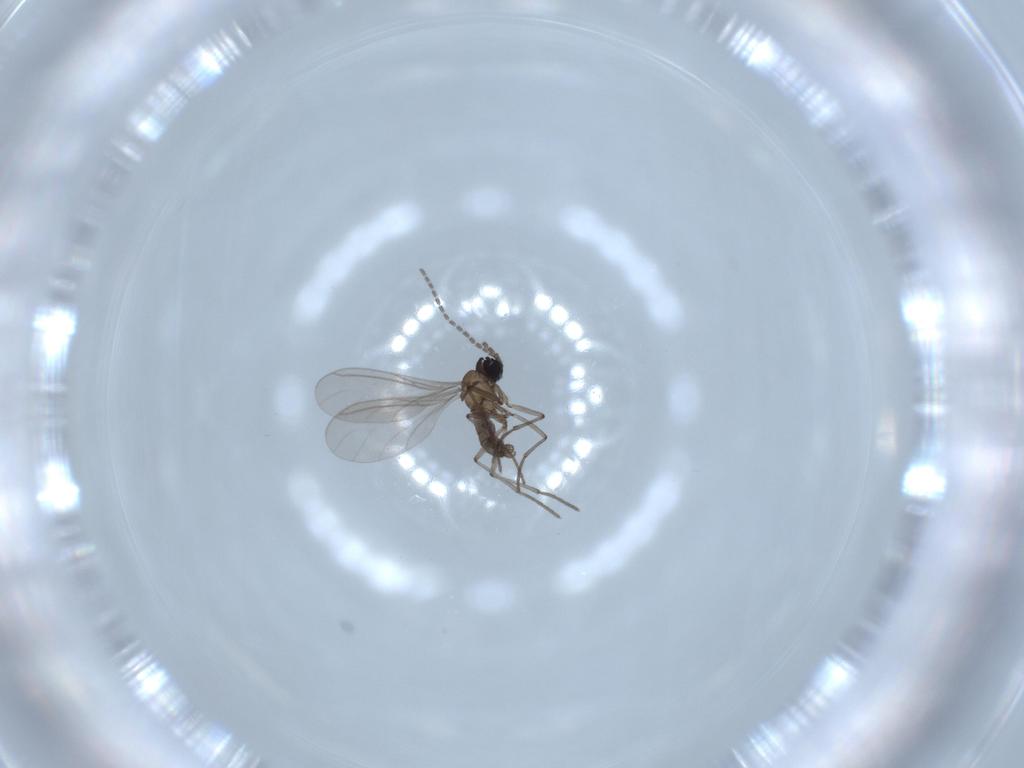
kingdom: Animalia
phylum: Arthropoda
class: Insecta
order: Diptera
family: Sciaridae
